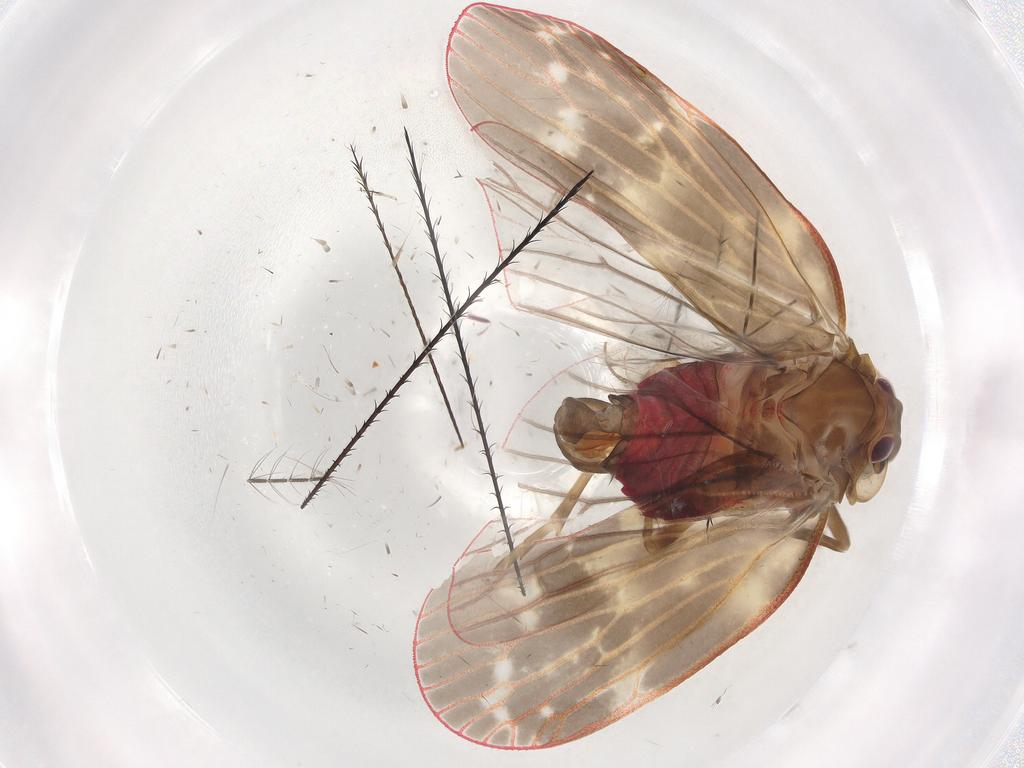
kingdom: Animalia
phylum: Arthropoda
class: Insecta
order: Hemiptera
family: Achilidae
